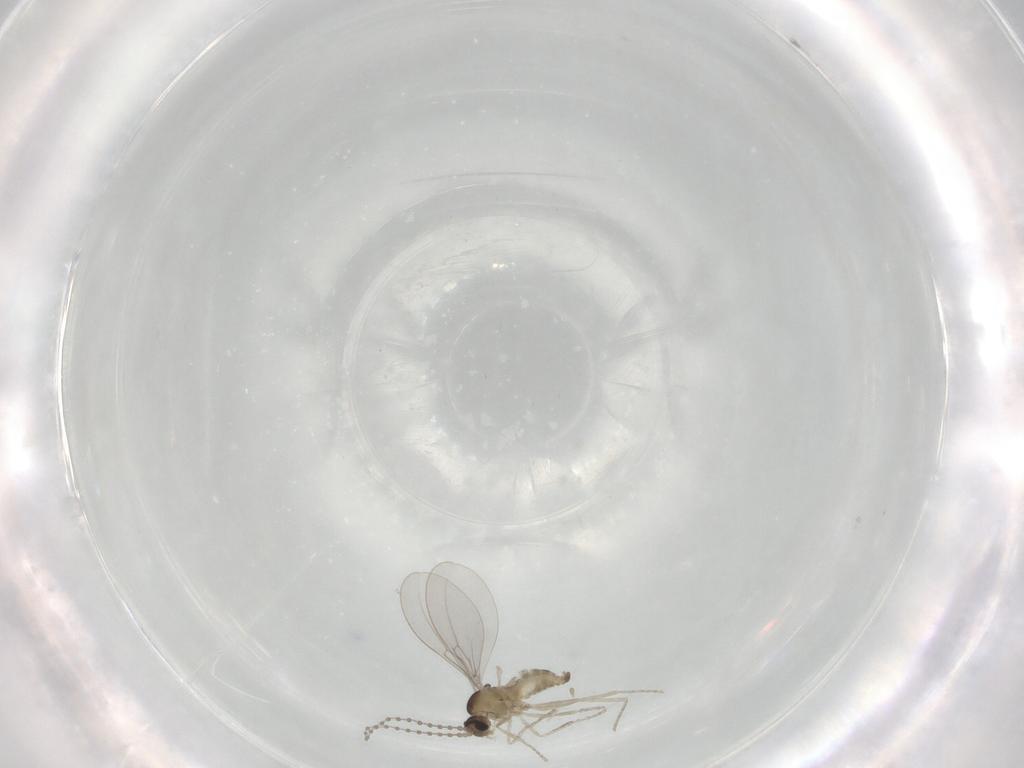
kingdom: Animalia
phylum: Arthropoda
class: Insecta
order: Diptera
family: Cecidomyiidae
